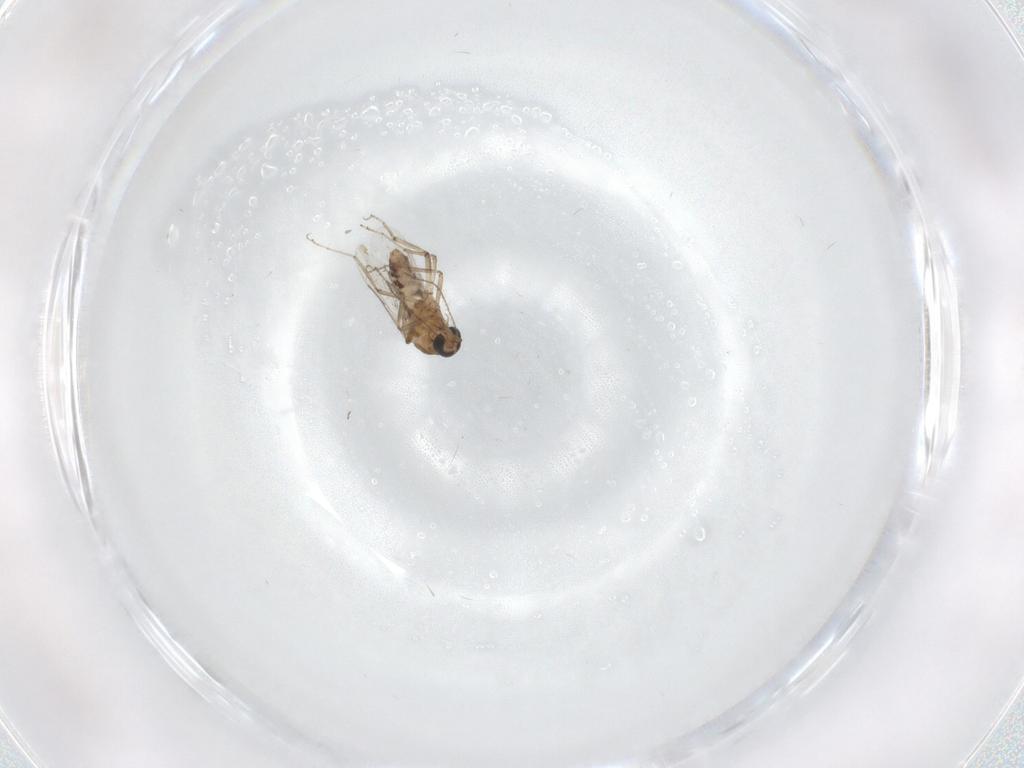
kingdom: Animalia
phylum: Arthropoda
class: Insecta
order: Diptera
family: Ceratopogonidae
